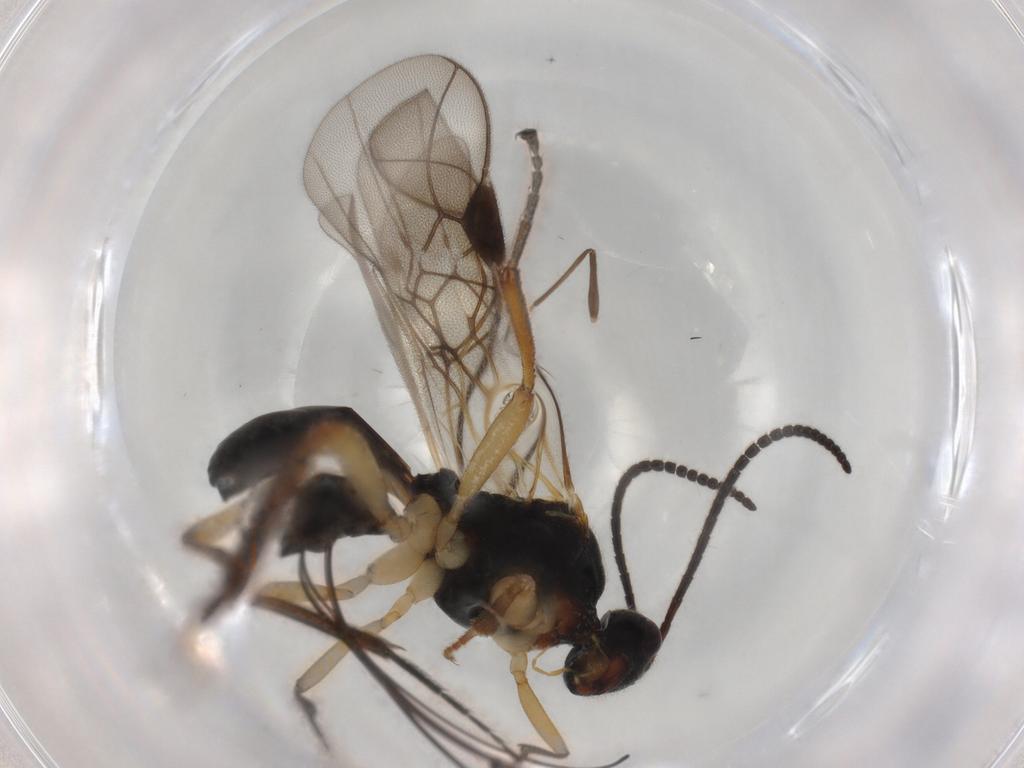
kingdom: Animalia
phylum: Arthropoda
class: Insecta
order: Hymenoptera
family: Braconidae
